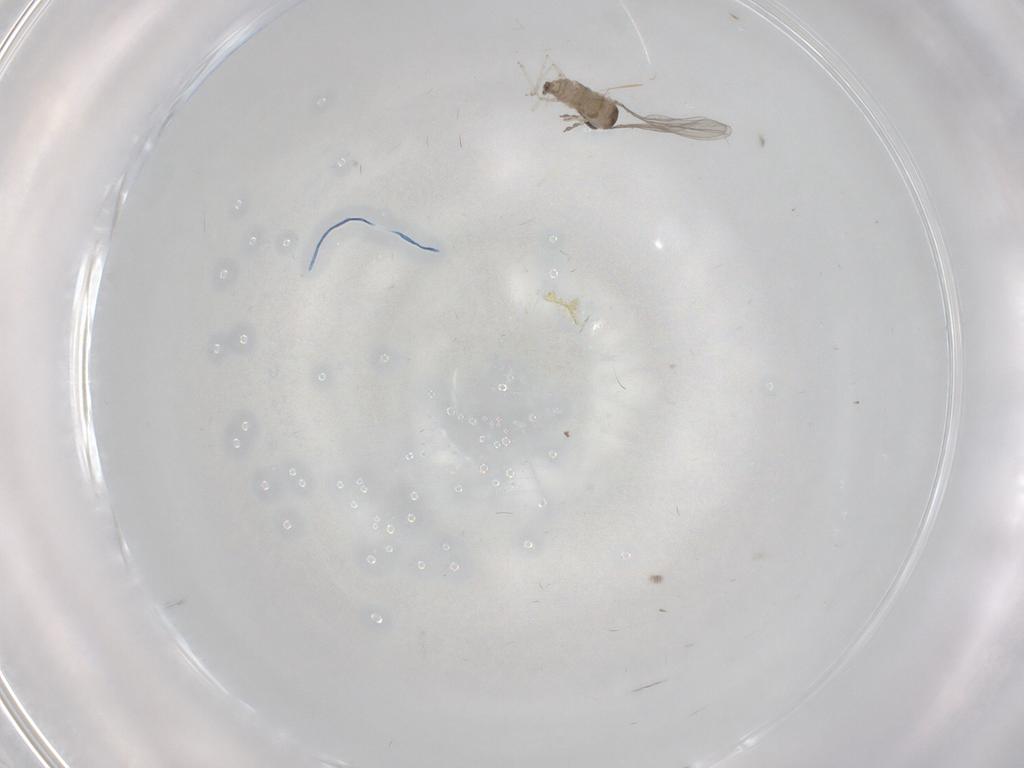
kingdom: Animalia
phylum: Arthropoda
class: Insecta
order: Diptera
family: Cecidomyiidae
